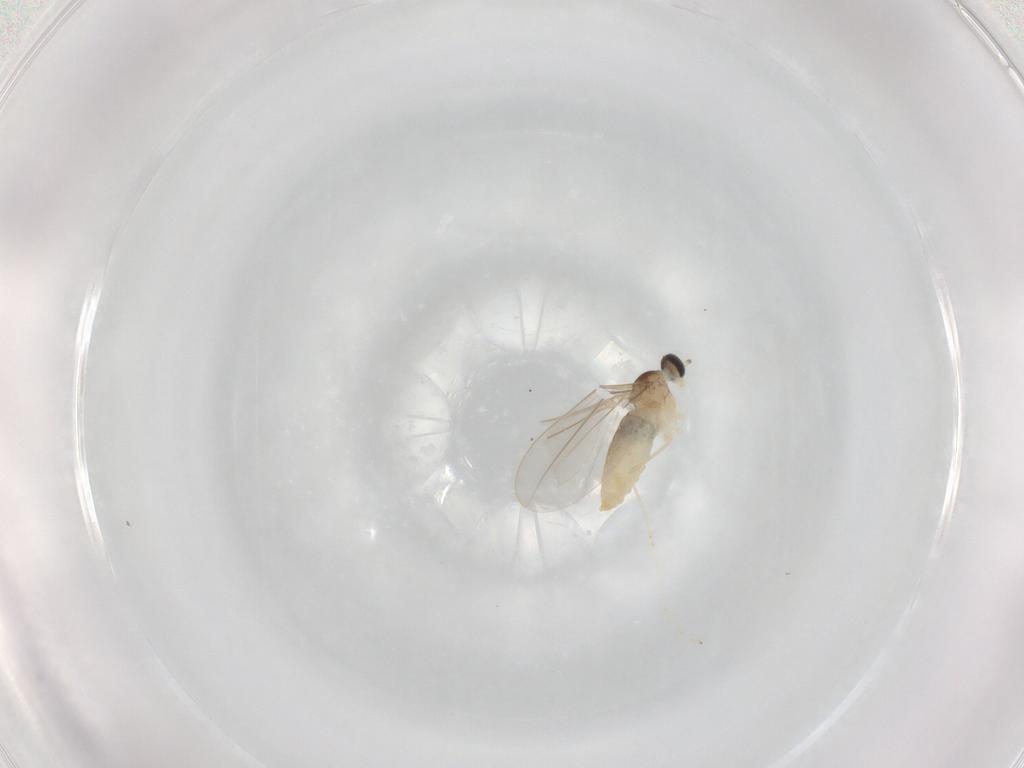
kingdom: Animalia
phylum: Arthropoda
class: Insecta
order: Diptera
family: Cecidomyiidae
